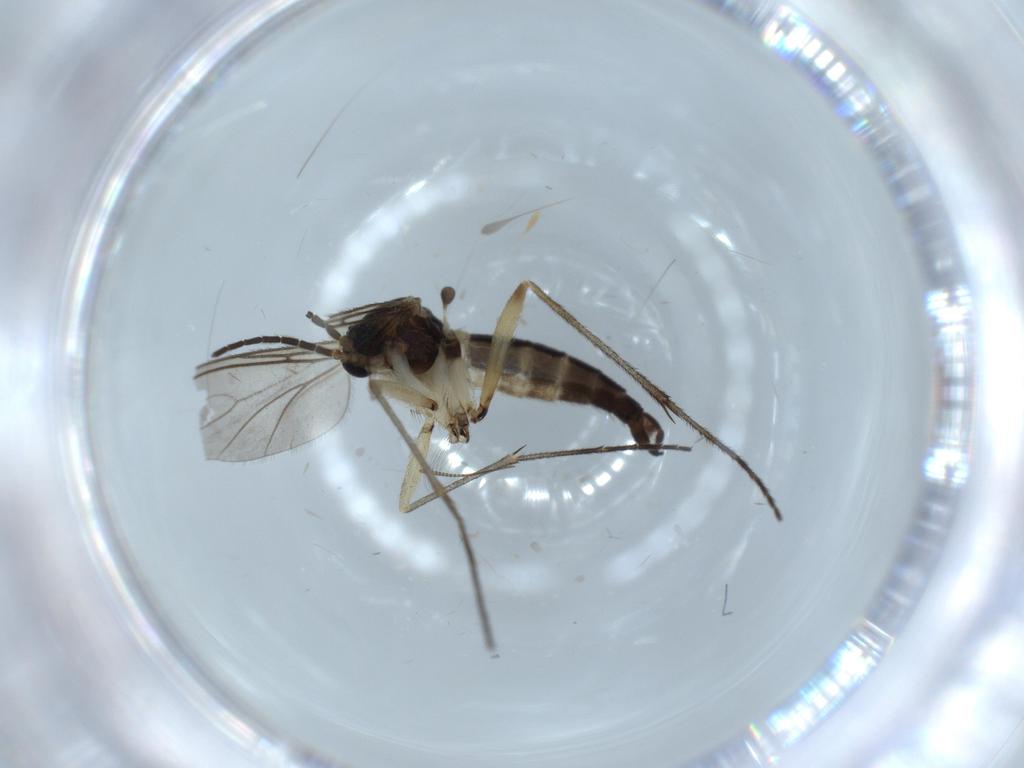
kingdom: Animalia
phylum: Arthropoda
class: Insecta
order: Diptera
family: Sciaridae
